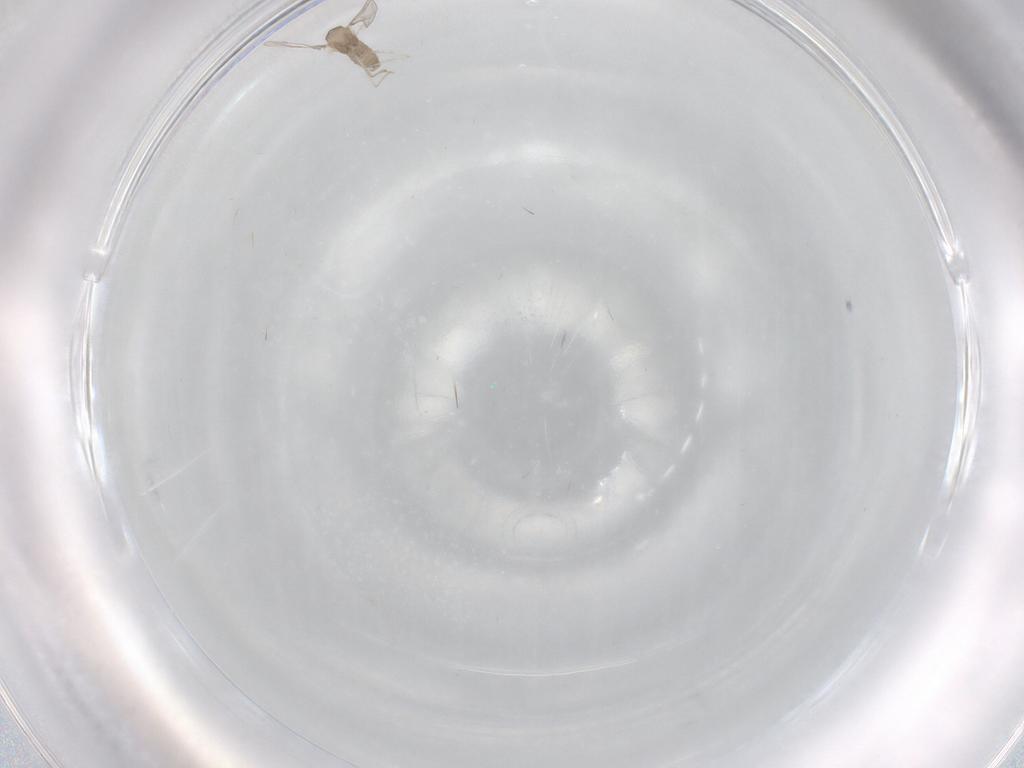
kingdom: Animalia
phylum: Arthropoda
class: Insecta
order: Diptera
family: Cecidomyiidae
